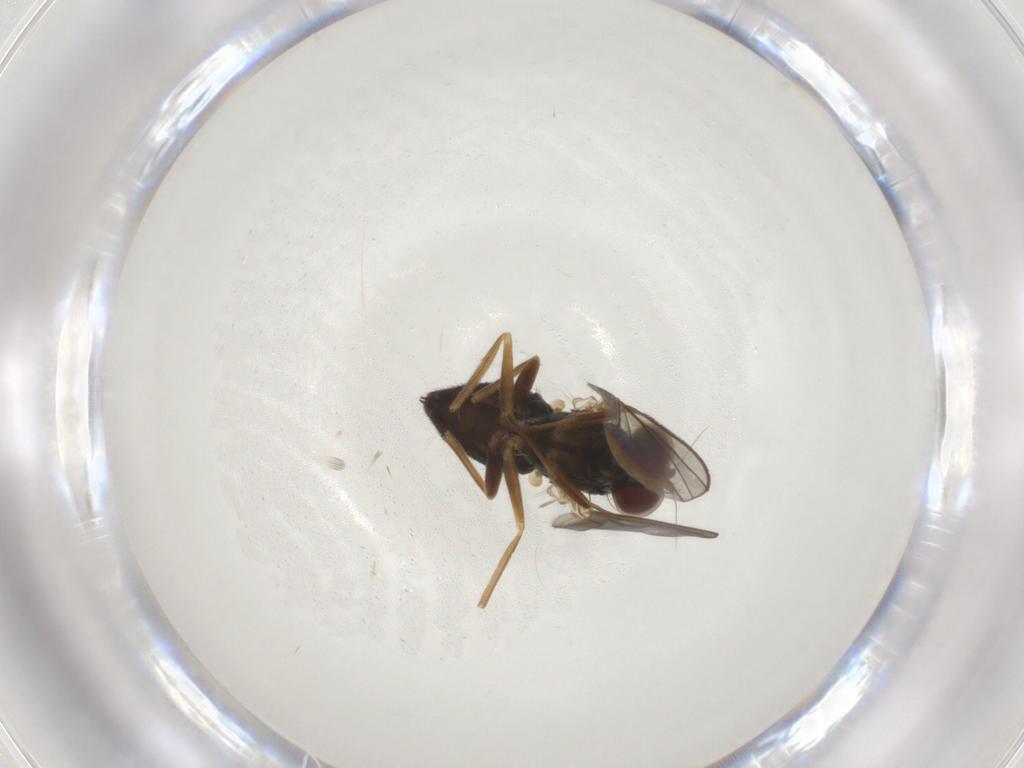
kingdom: Animalia
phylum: Arthropoda
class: Insecta
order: Diptera
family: Dolichopodidae
